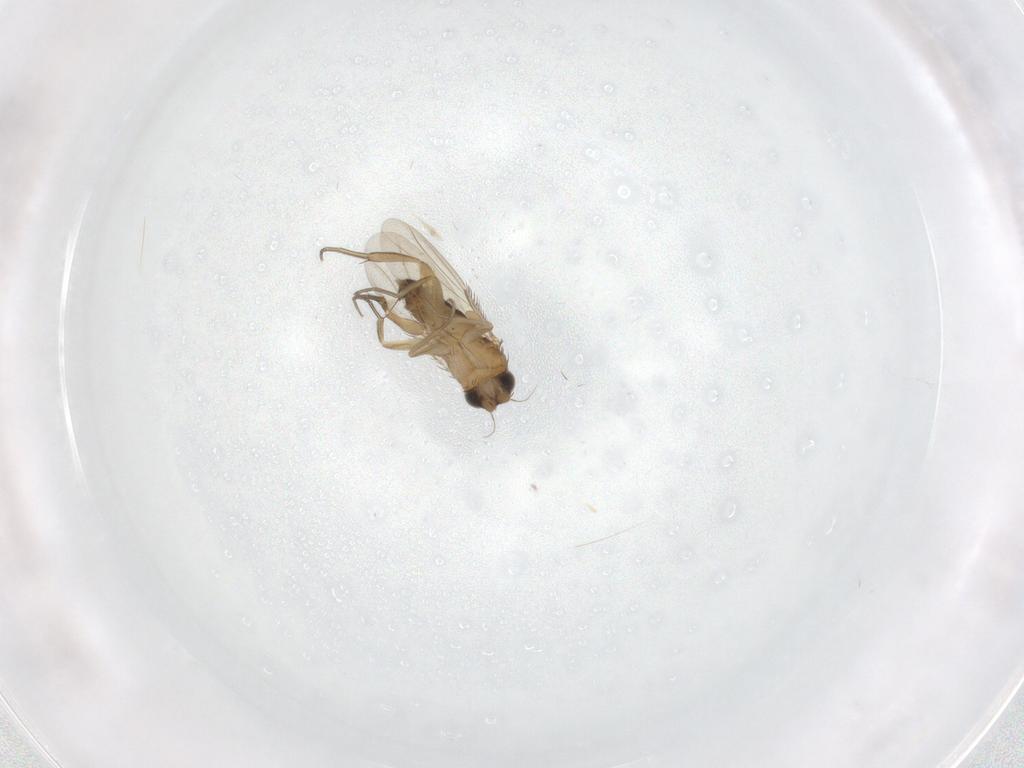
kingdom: Animalia
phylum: Arthropoda
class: Insecta
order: Diptera
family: Phoridae
